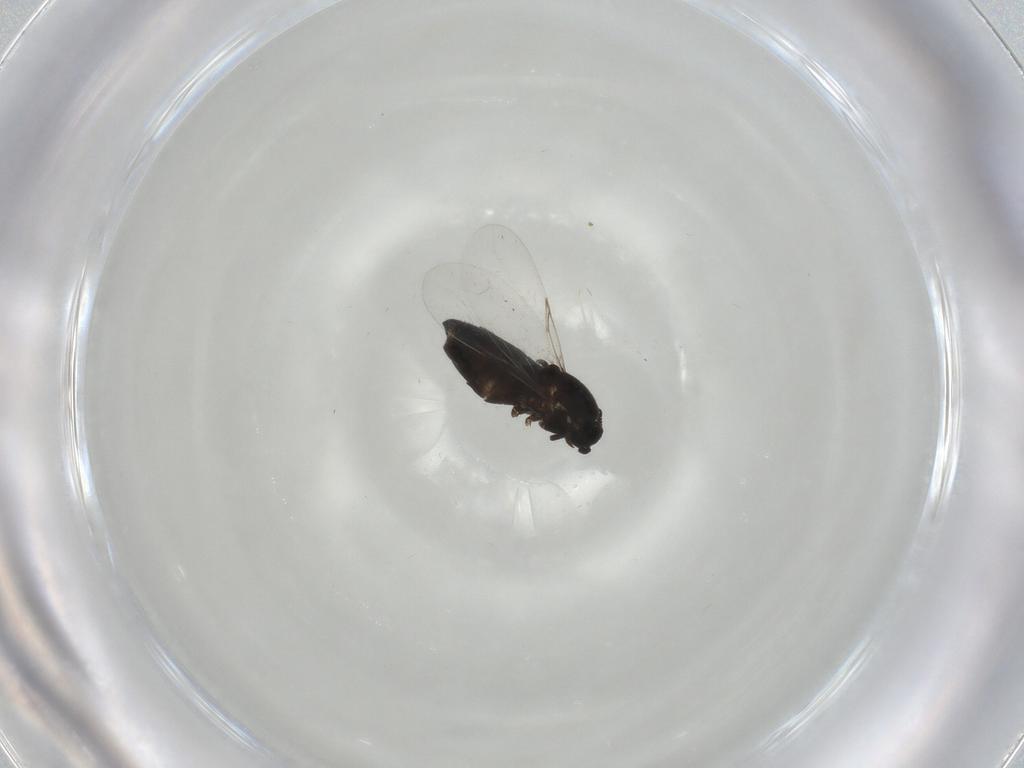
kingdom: Animalia
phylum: Arthropoda
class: Insecta
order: Diptera
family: Scatopsidae
